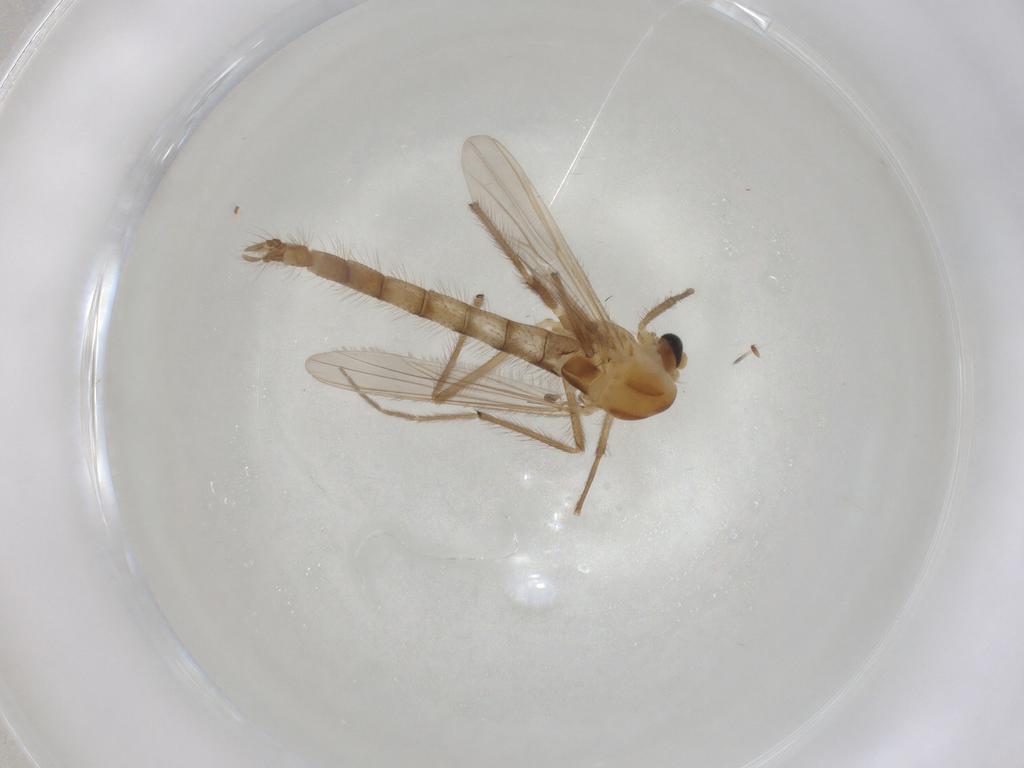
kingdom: Animalia
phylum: Arthropoda
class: Insecta
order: Diptera
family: Chironomidae
